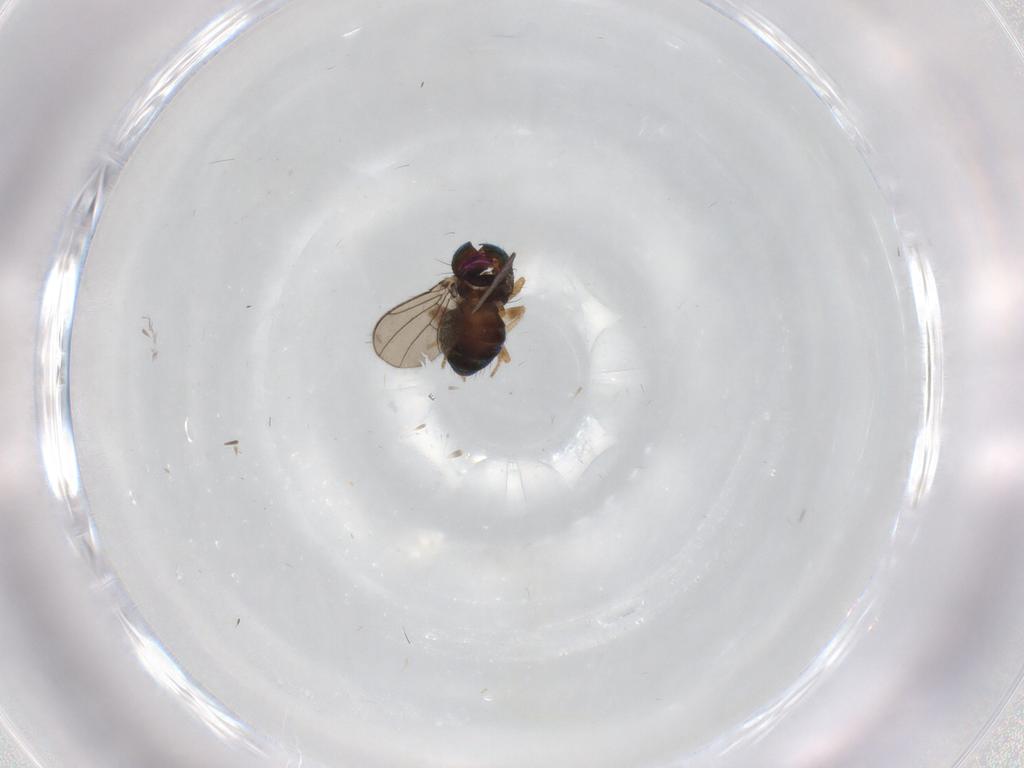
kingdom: Animalia
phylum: Arthropoda
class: Insecta
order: Diptera
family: Drosophilidae
